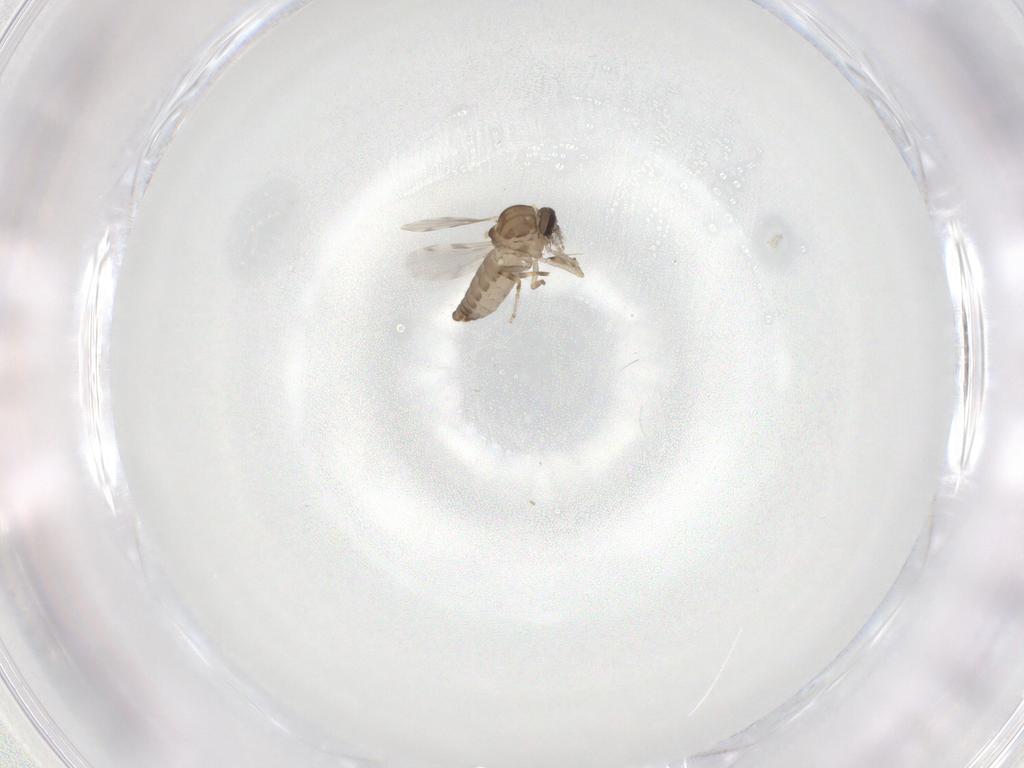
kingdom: Animalia
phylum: Arthropoda
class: Insecta
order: Diptera
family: Ceratopogonidae
